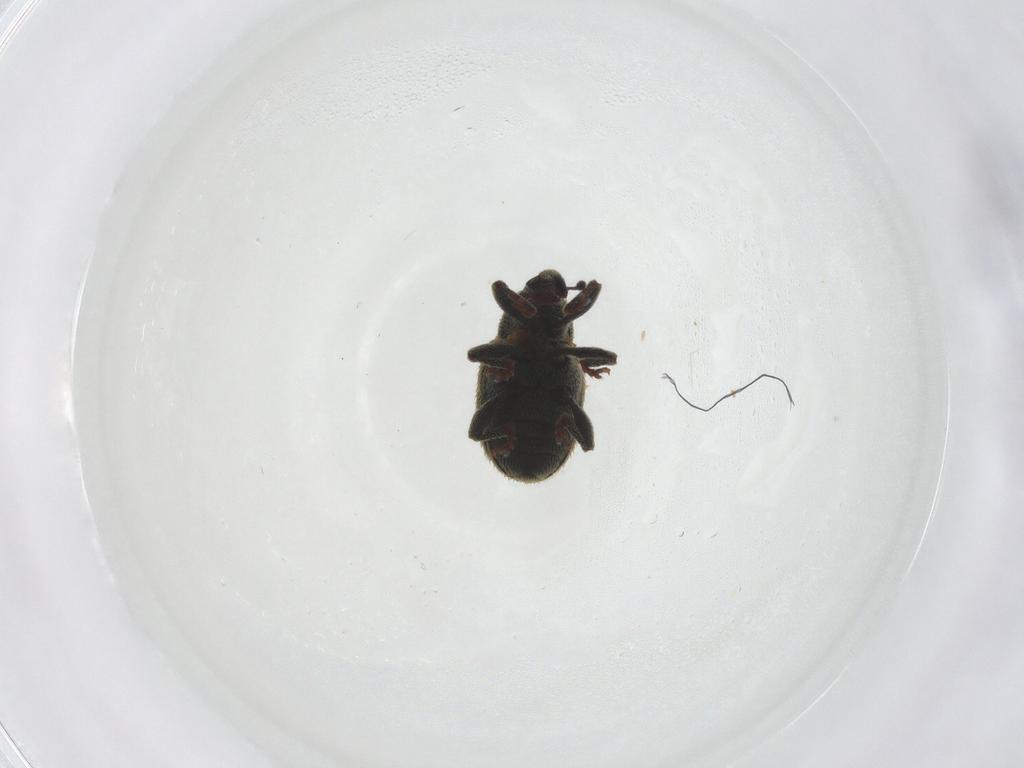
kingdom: Animalia
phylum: Arthropoda
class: Insecta
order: Coleoptera
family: Curculionidae
